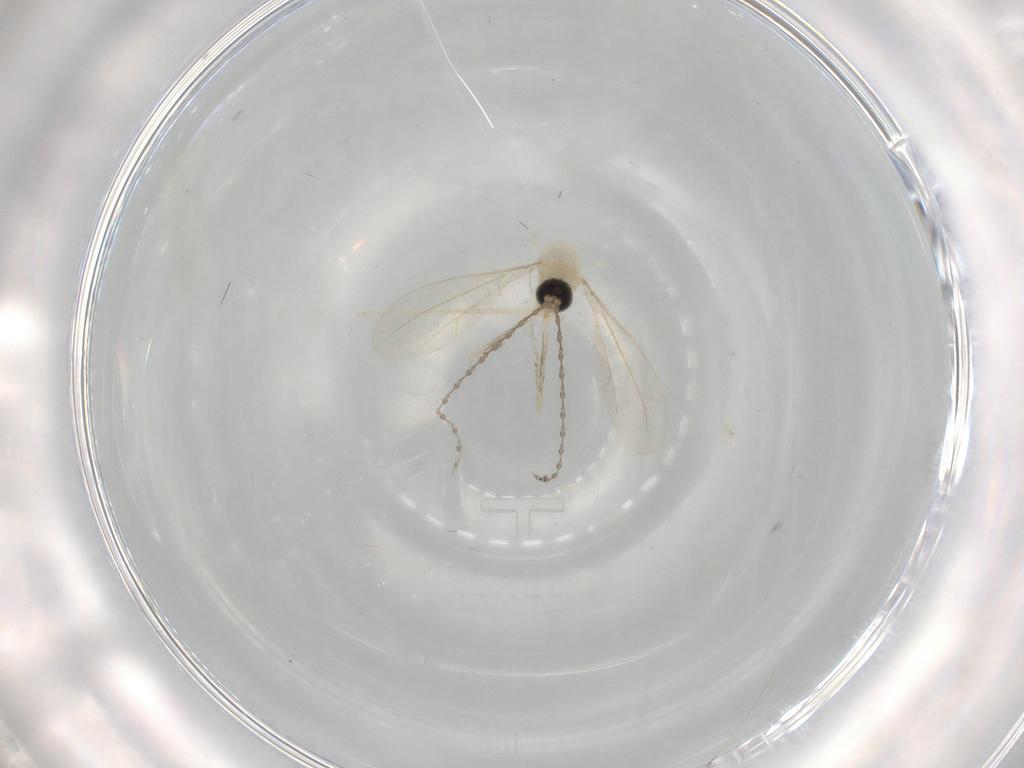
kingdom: Animalia
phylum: Arthropoda
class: Insecta
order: Diptera
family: Cecidomyiidae
